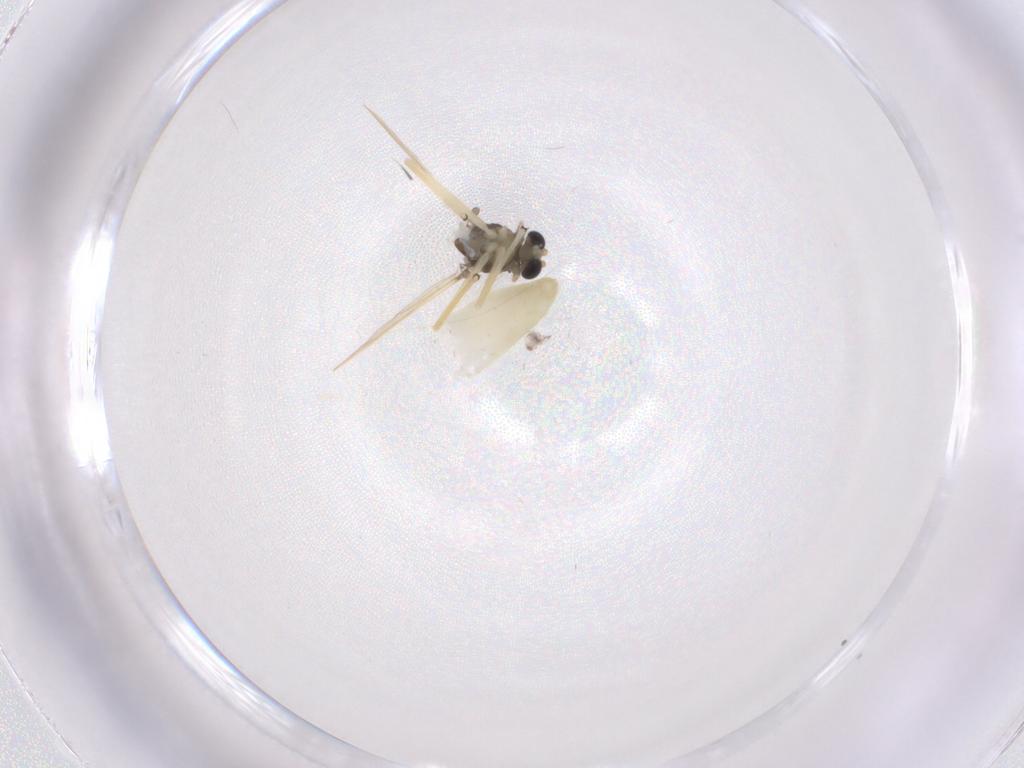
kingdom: Animalia
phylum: Arthropoda
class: Insecta
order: Diptera
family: Chironomidae
